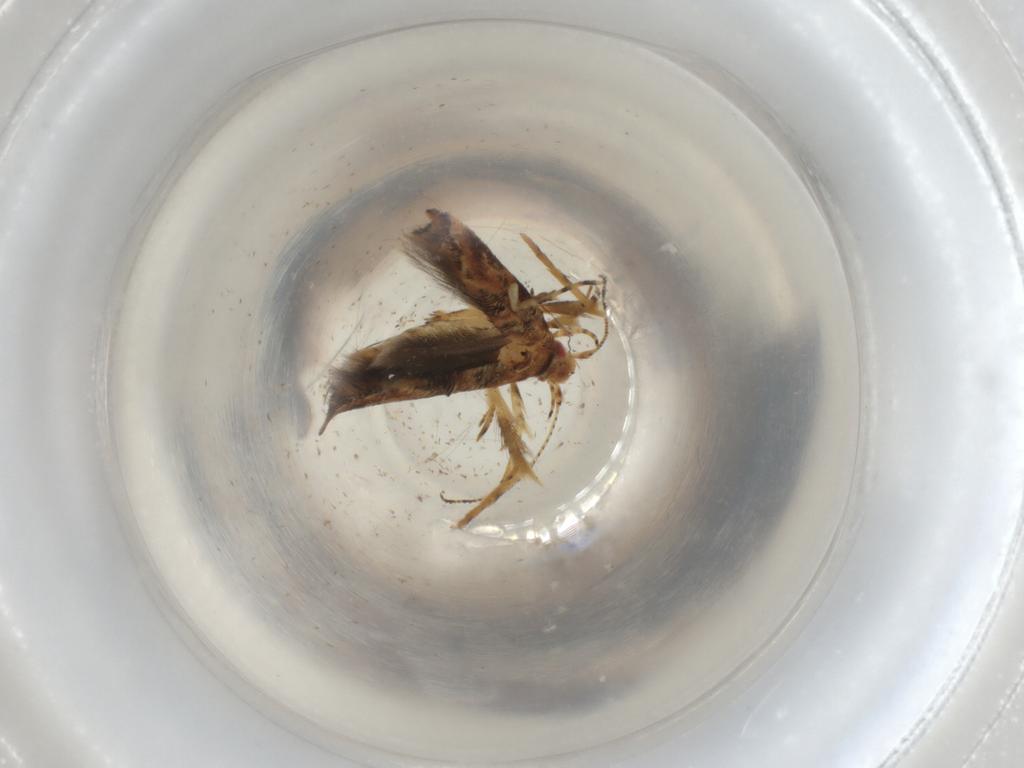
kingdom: Animalia
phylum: Arthropoda
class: Insecta
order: Lepidoptera
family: Cosmopterigidae
